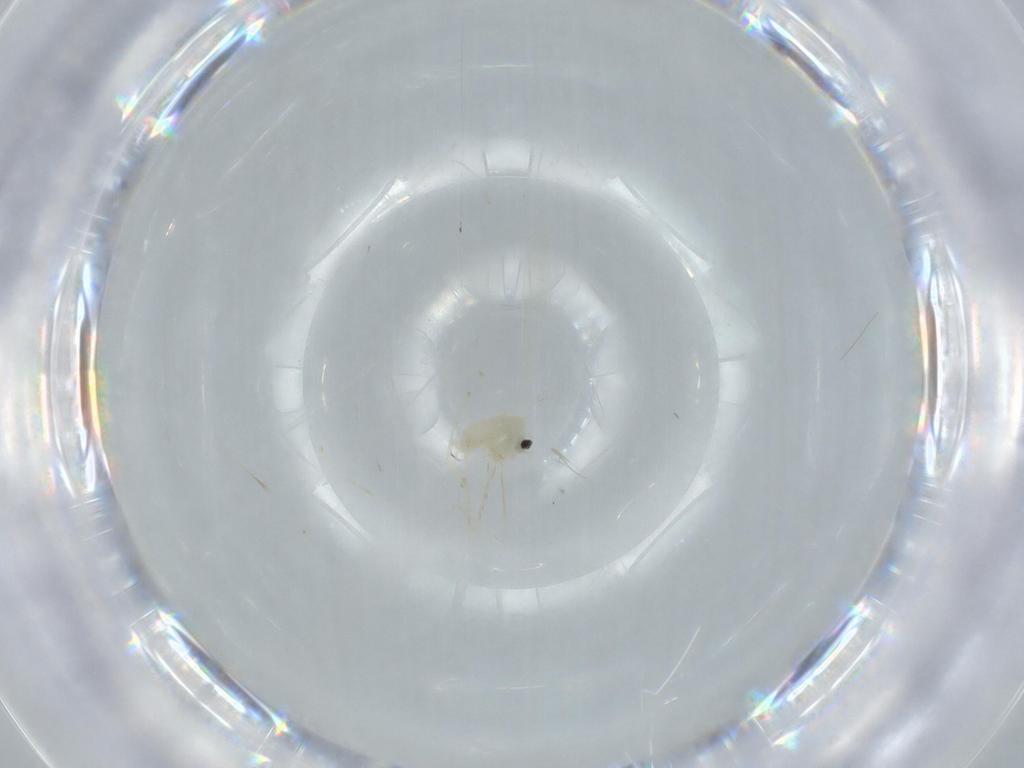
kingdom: Animalia
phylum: Arthropoda
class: Insecta
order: Diptera
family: Cecidomyiidae
